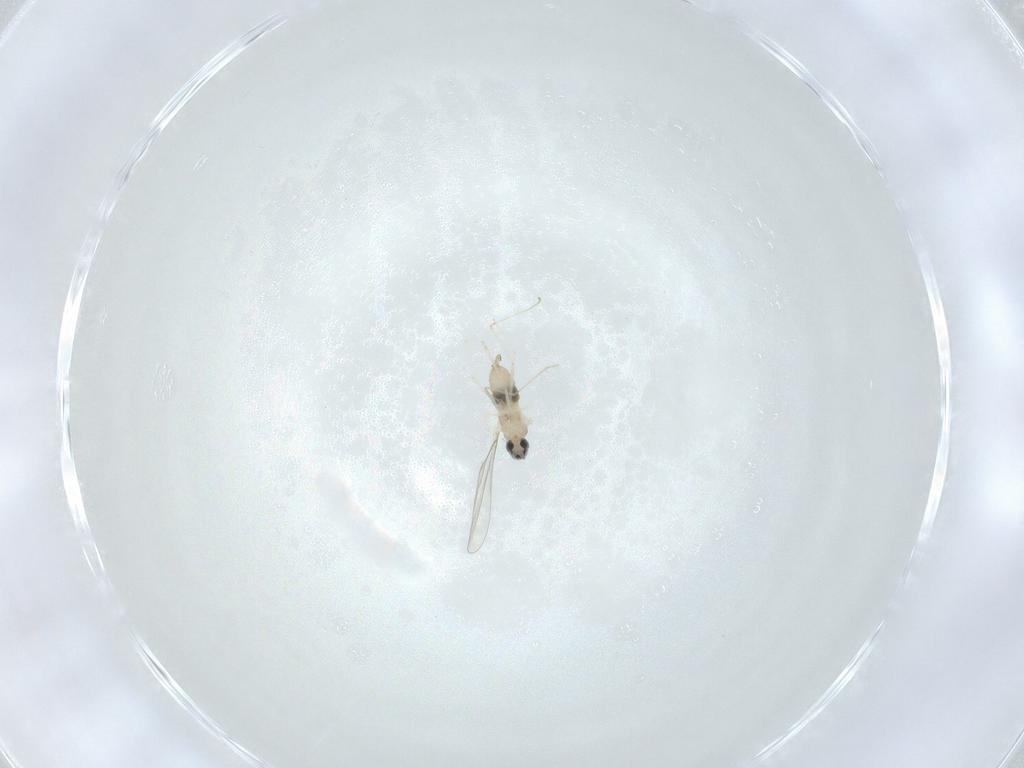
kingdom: Animalia
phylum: Arthropoda
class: Insecta
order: Diptera
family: Cecidomyiidae
